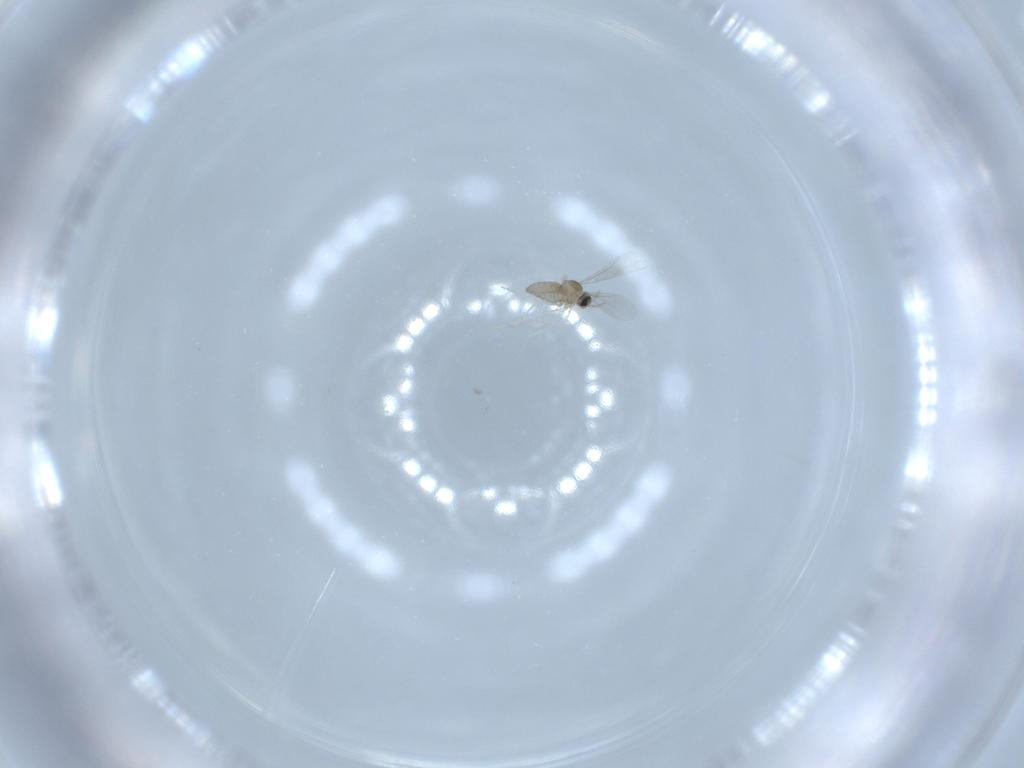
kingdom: Animalia
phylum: Arthropoda
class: Insecta
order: Diptera
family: Cecidomyiidae
